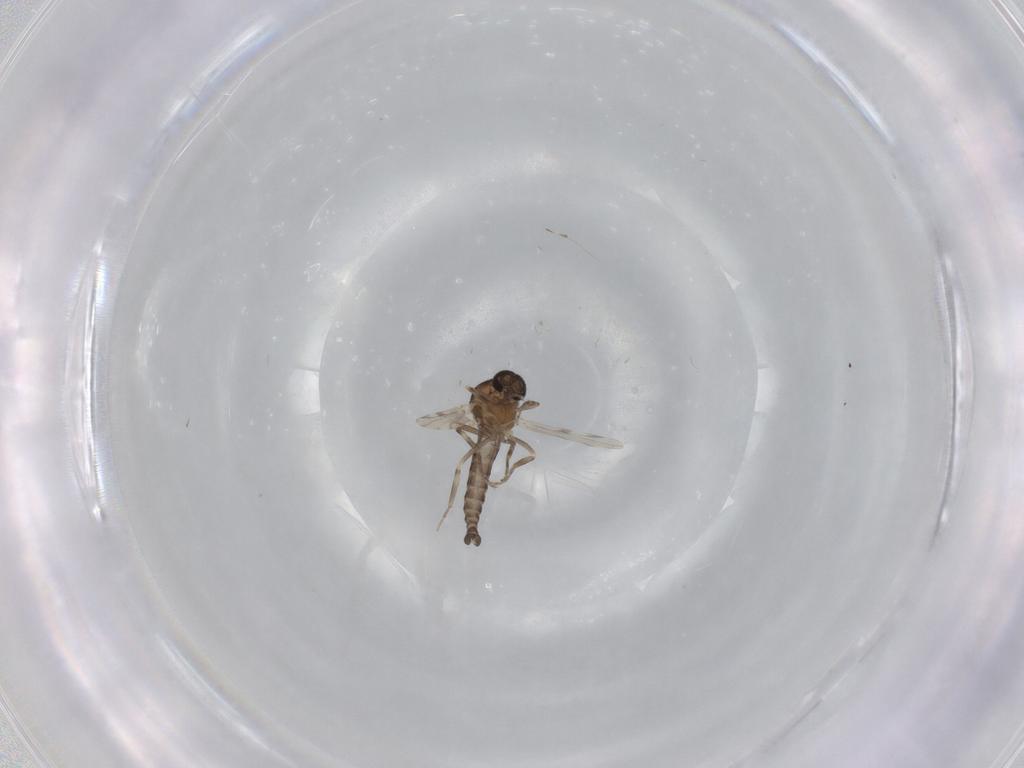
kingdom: Animalia
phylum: Arthropoda
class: Insecta
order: Diptera
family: Ceratopogonidae
